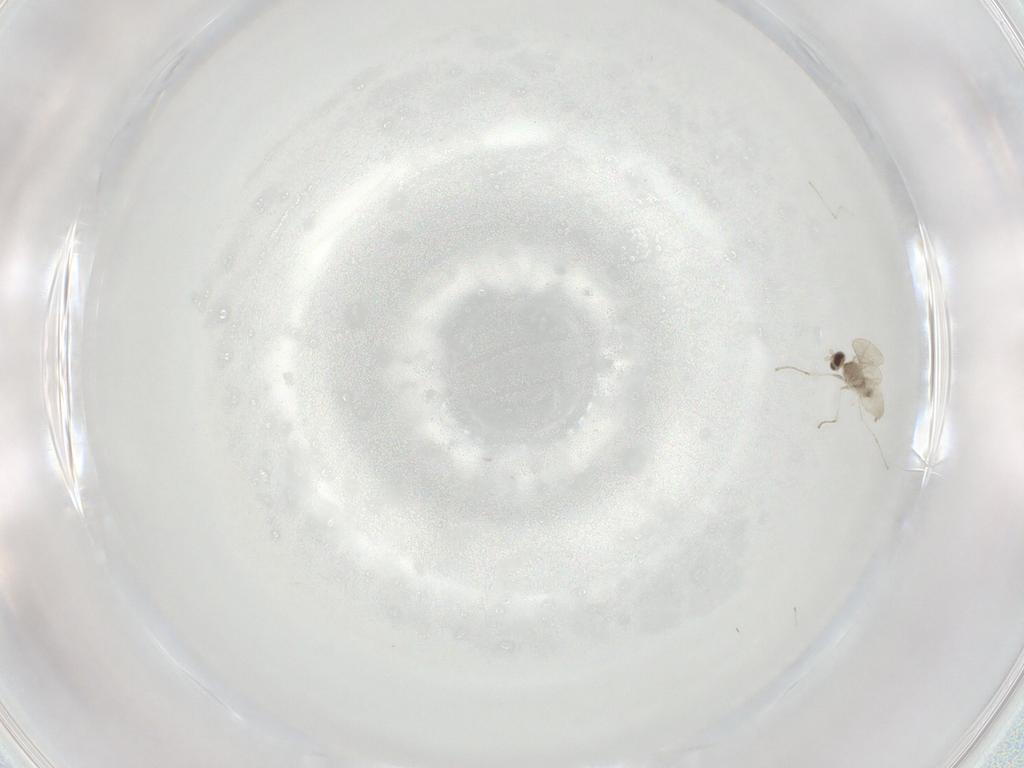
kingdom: Animalia
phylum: Arthropoda
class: Insecta
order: Diptera
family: Cecidomyiidae
